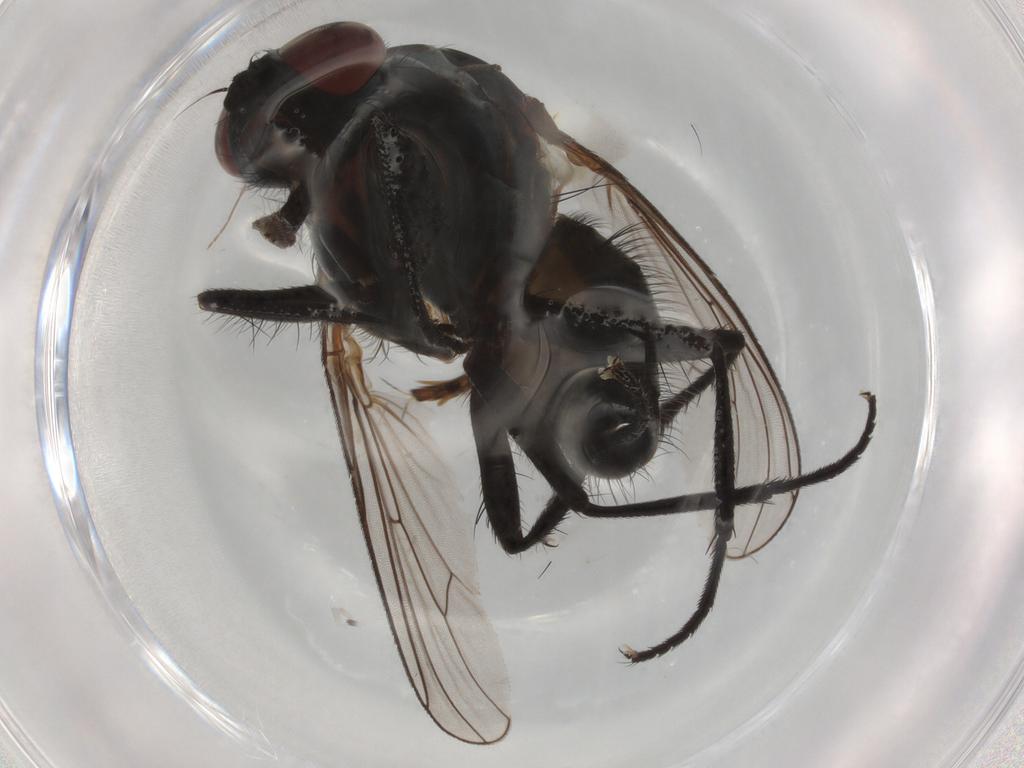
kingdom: Animalia
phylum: Arthropoda
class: Insecta
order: Diptera
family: Anthomyiidae
